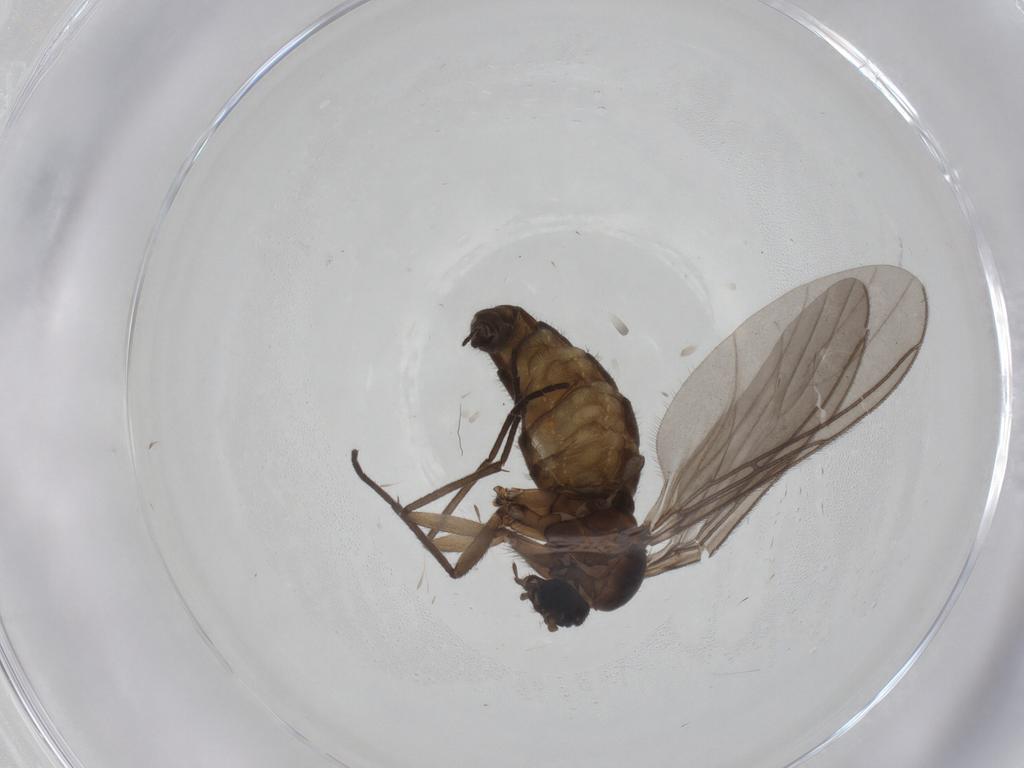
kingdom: Animalia
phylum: Arthropoda
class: Insecta
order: Diptera
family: Sciaridae
